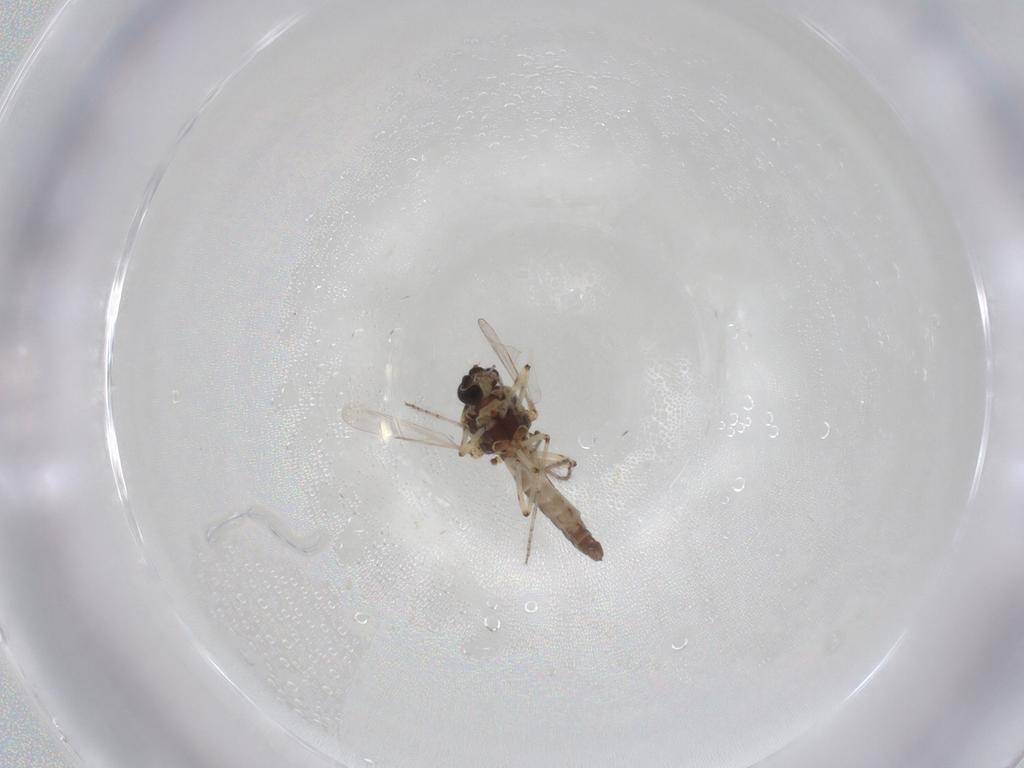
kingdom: Animalia
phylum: Arthropoda
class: Insecta
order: Diptera
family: Ceratopogonidae
